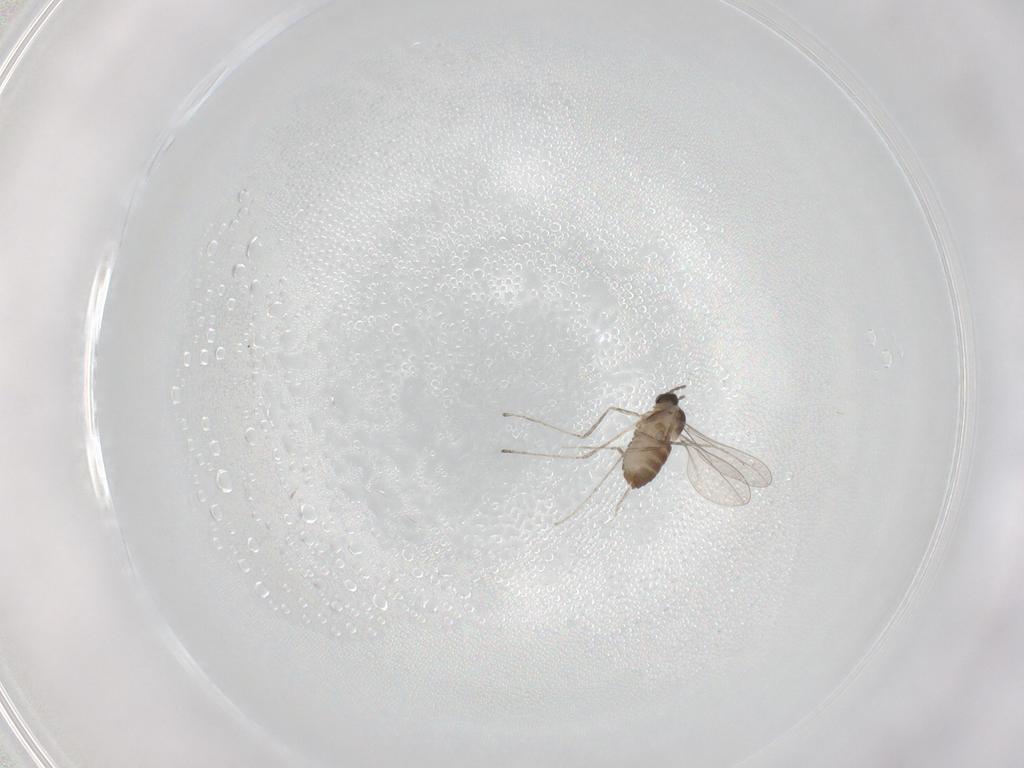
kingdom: Animalia
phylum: Arthropoda
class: Insecta
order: Diptera
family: Cecidomyiidae
